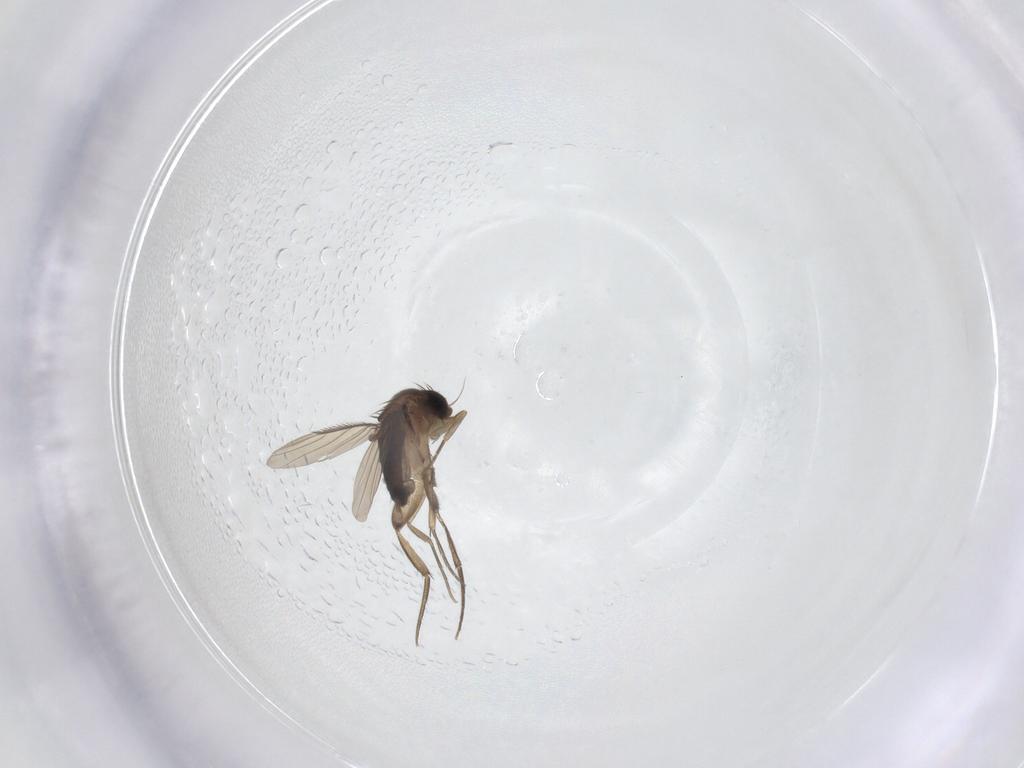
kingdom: Animalia
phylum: Arthropoda
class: Insecta
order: Diptera
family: Phoridae
